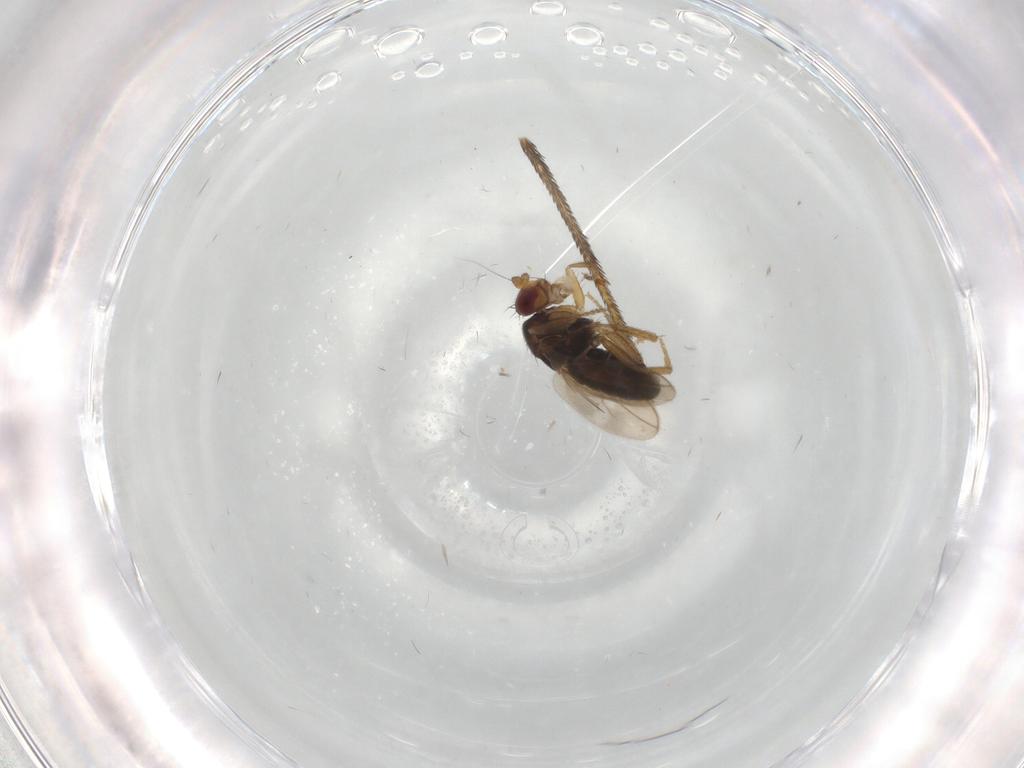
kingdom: Animalia
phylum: Arthropoda
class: Insecta
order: Diptera
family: Sphaeroceridae
